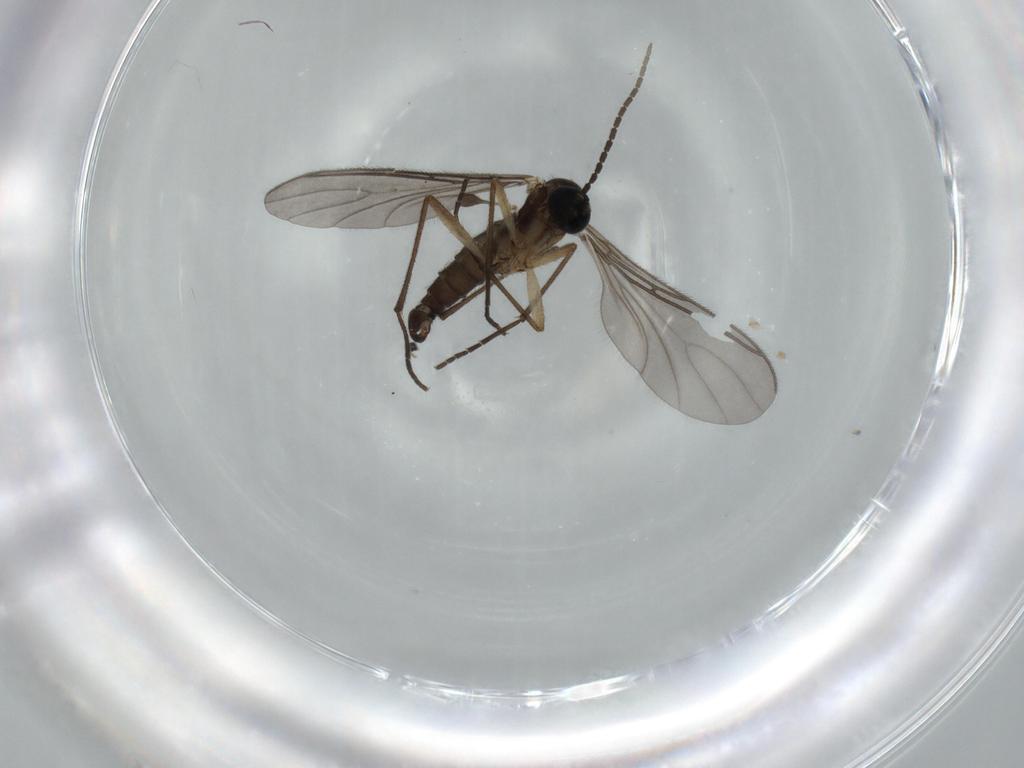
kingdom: Animalia
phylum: Arthropoda
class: Insecta
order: Diptera
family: Sciaridae
